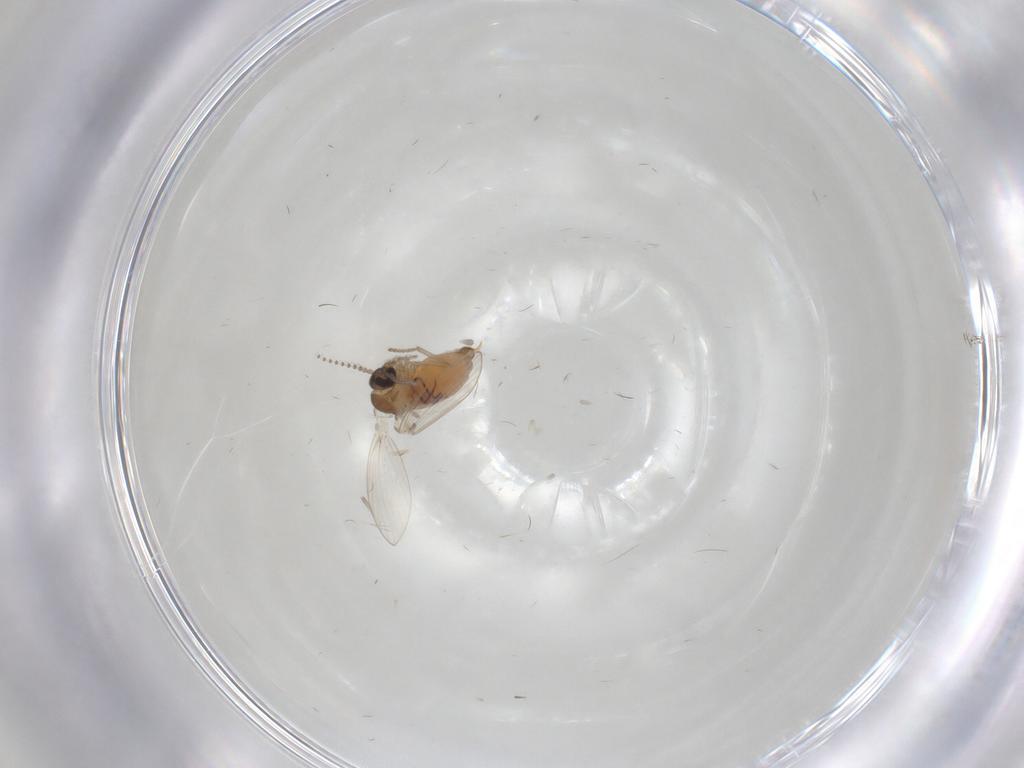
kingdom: Animalia
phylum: Arthropoda
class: Insecta
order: Diptera
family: Psychodidae
